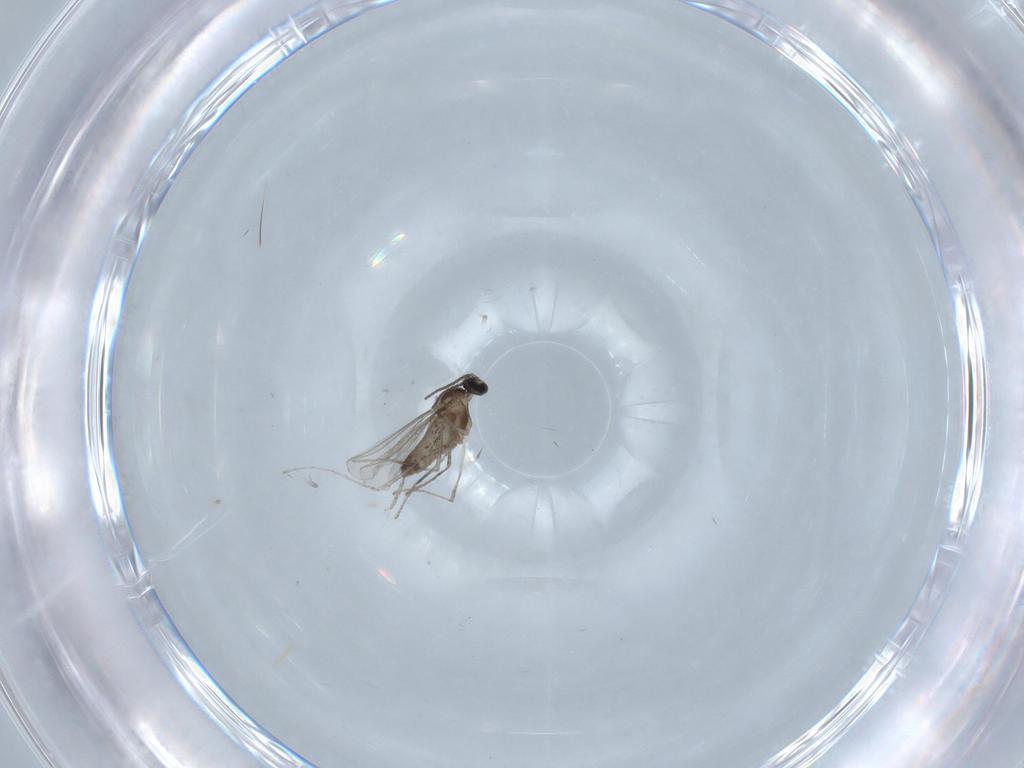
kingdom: Animalia
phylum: Arthropoda
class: Insecta
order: Diptera
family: Cecidomyiidae
